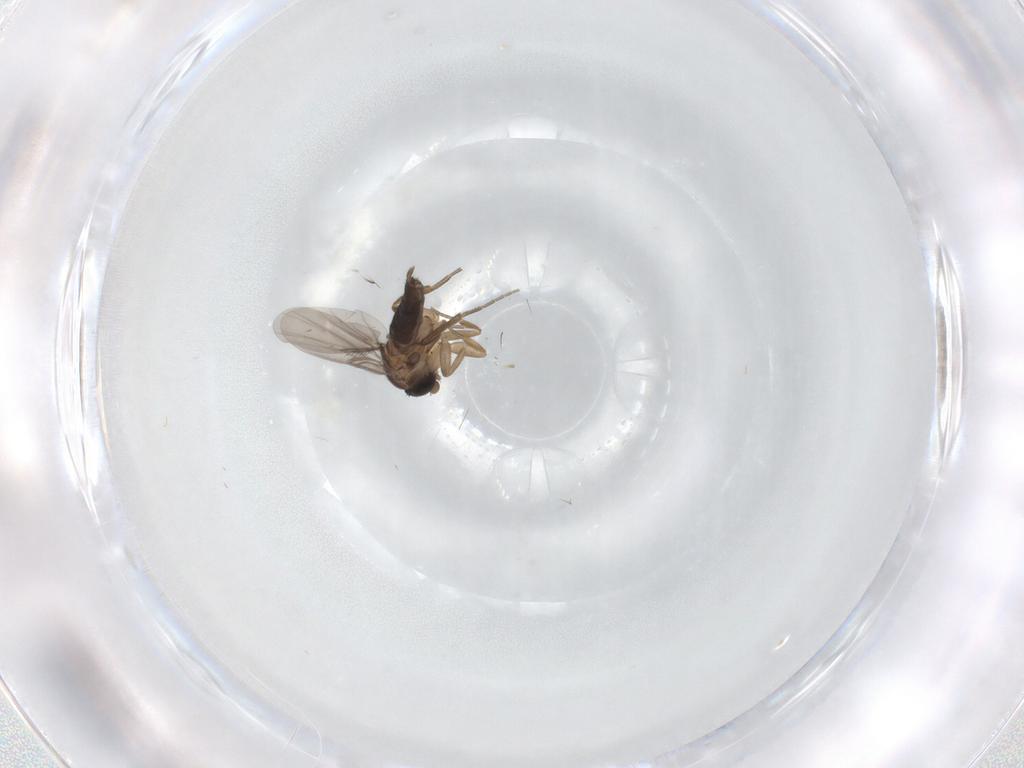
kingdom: Animalia
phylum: Arthropoda
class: Insecta
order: Diptera
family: Phoridae
